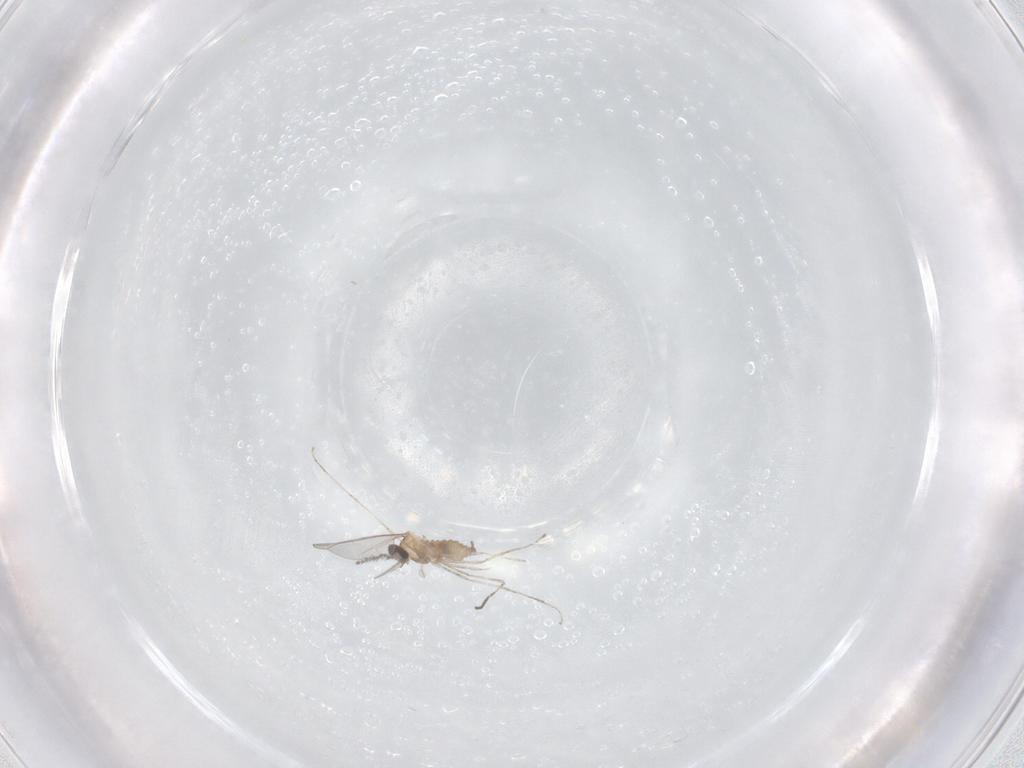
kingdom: Animalia
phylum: Arthropoda
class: Insecta
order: Diptera
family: Cecidomyiidae
